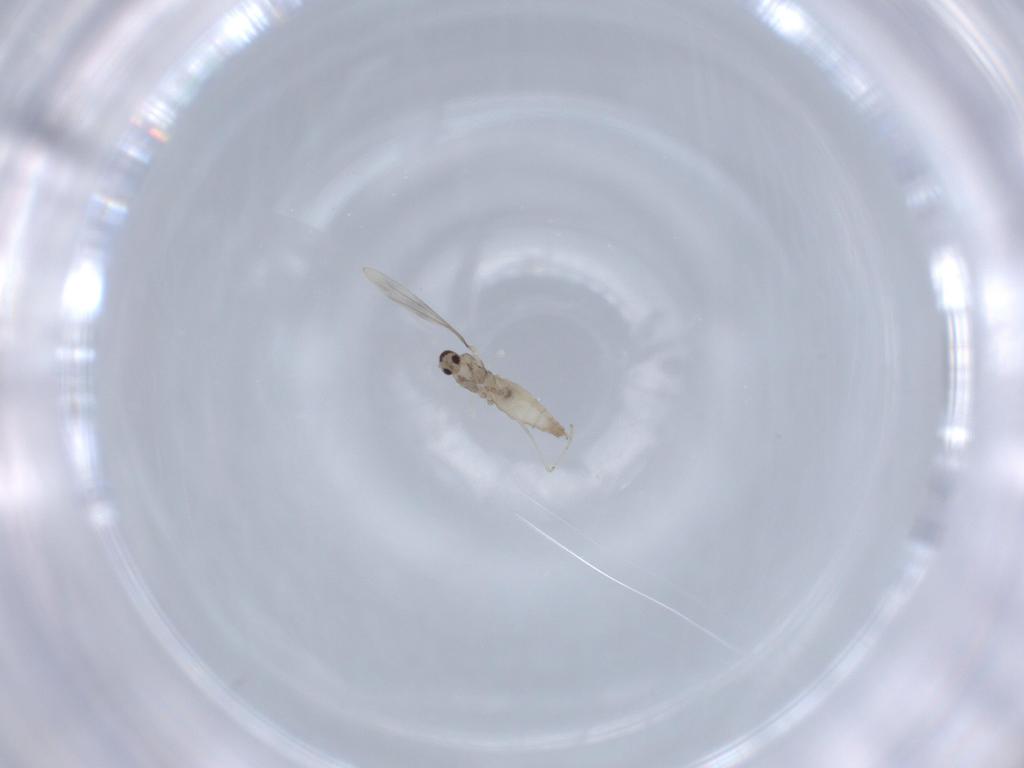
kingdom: Animalia
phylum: Arthropoda
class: Insecta
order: Diptera
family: Cecidomyiidae
